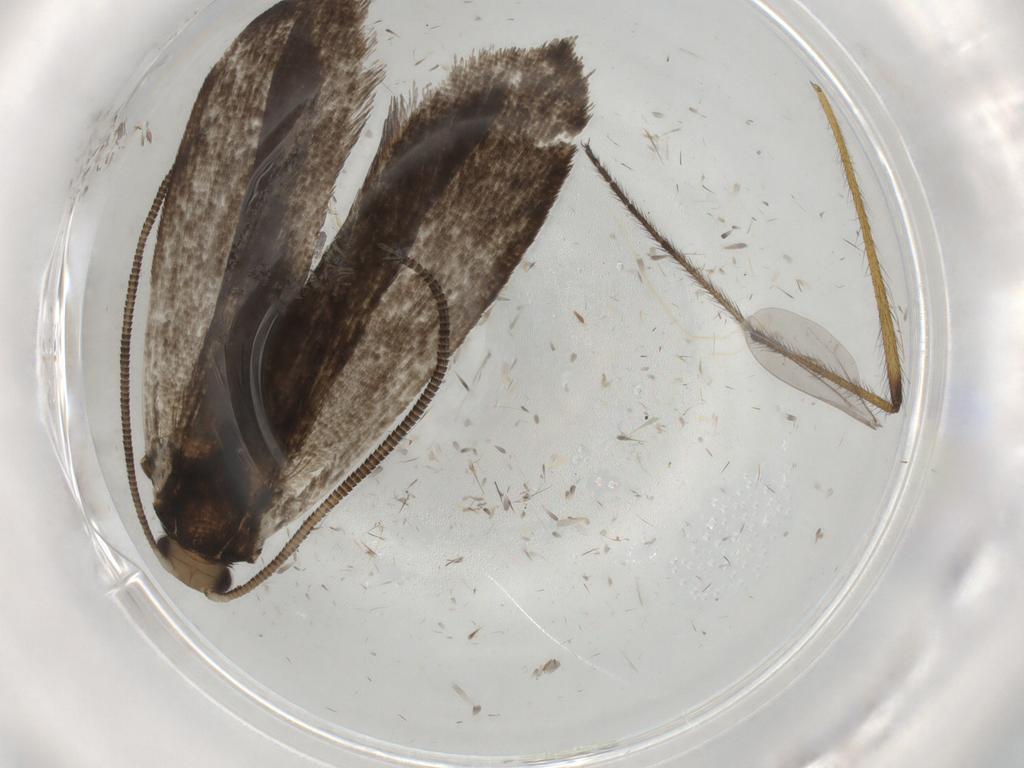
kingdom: Animalia
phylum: Arthropoda
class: Insecta
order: Lepidoptera
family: Tineidae
